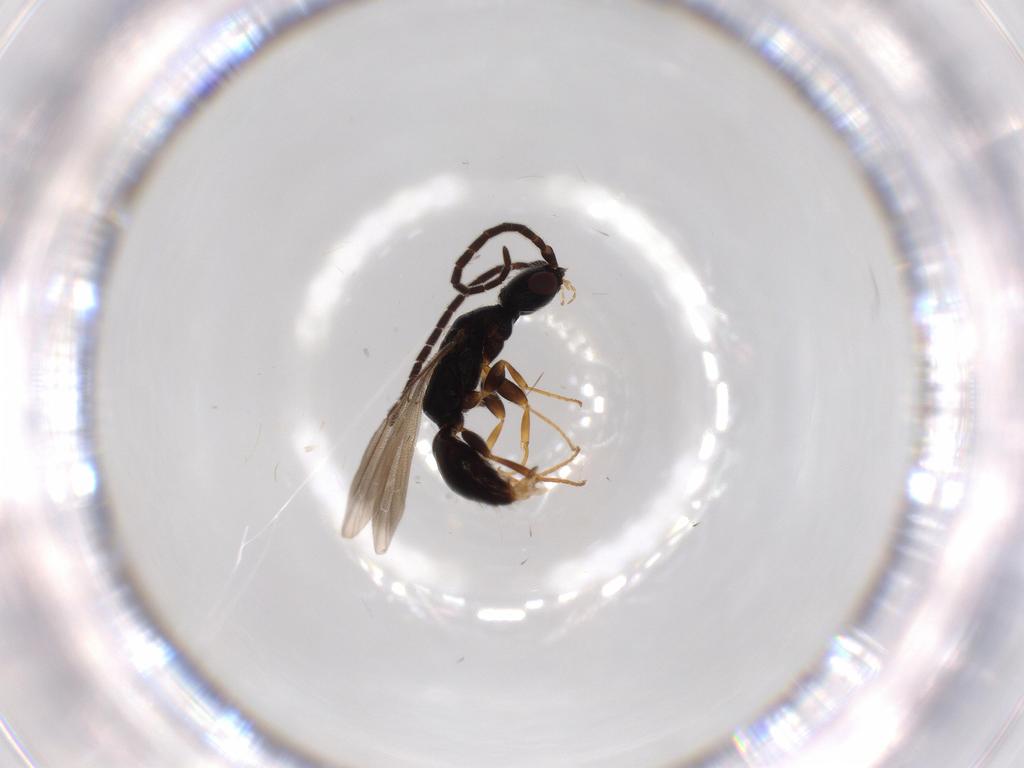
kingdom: Animalia
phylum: Arthropoda
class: Insecta
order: Hymenoptera
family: Bethylidae
